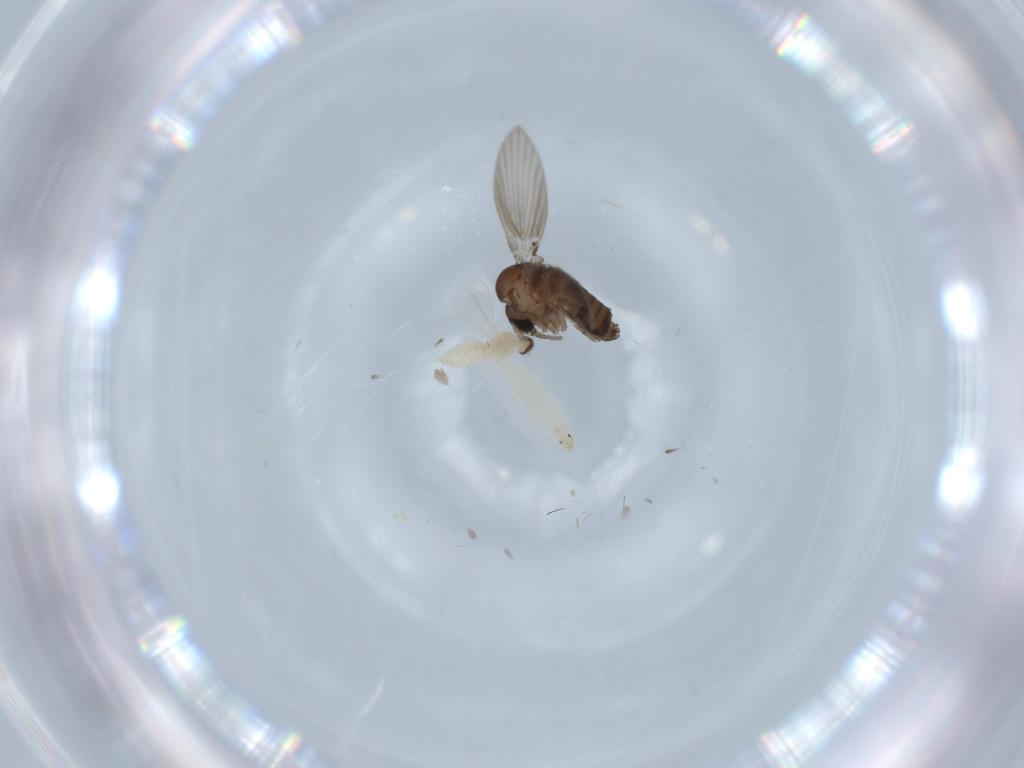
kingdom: Animalia
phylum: Arthropoda
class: Insecta
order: Diptera
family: Psychodidae
